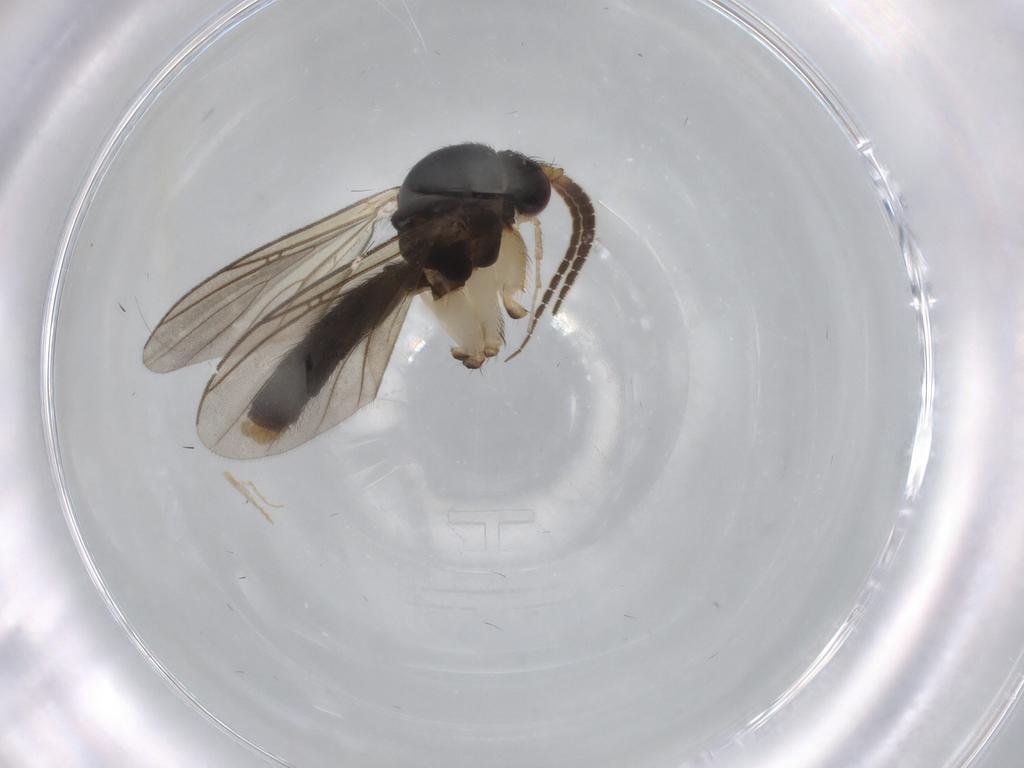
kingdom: Animalia
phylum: Arthropoda
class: Insecta
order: Diptera
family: Mycetophilidae
